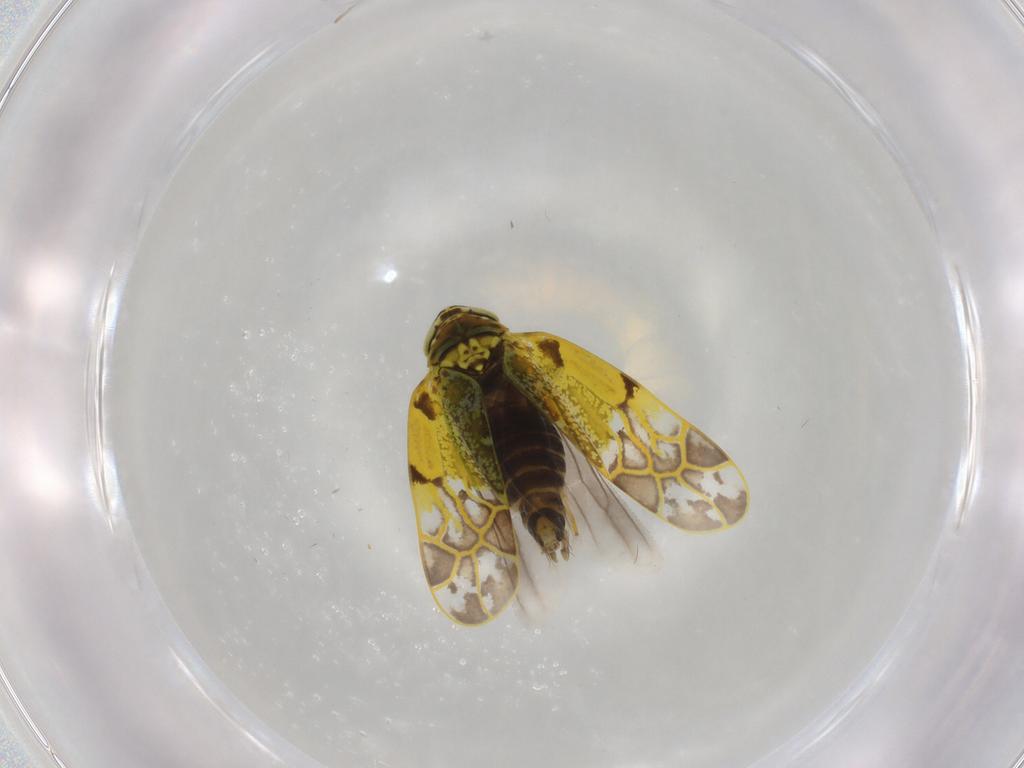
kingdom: Animalia
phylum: Arthropoda
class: Insecta
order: Hemiptera
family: Cicadellidae
